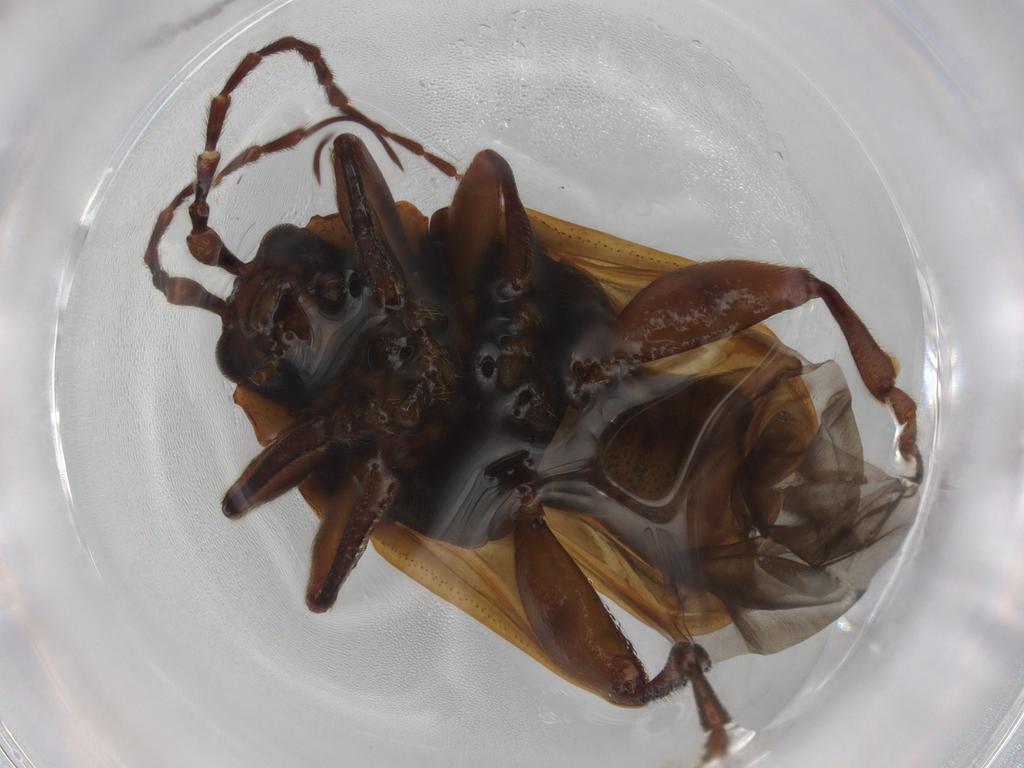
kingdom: Animalia
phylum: Arthropoda
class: Insecta
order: Coleoptera
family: Chrysomelidae
